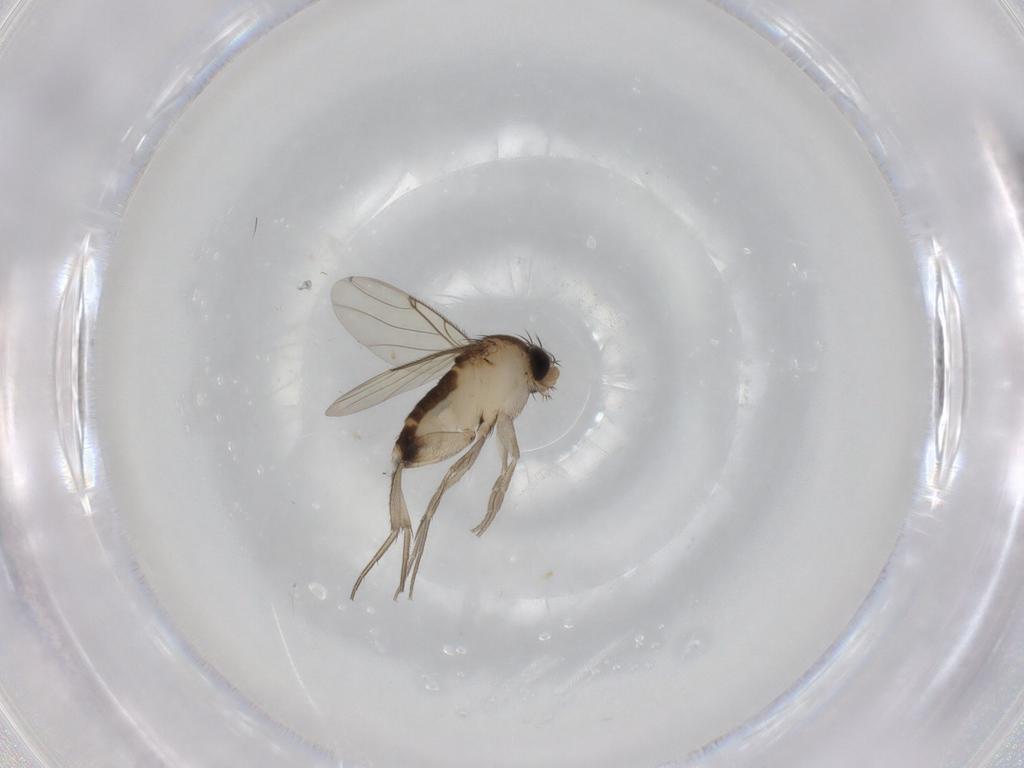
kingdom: Animalia
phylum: Arthropoda
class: Insecta
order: Diptera
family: Phoridae
